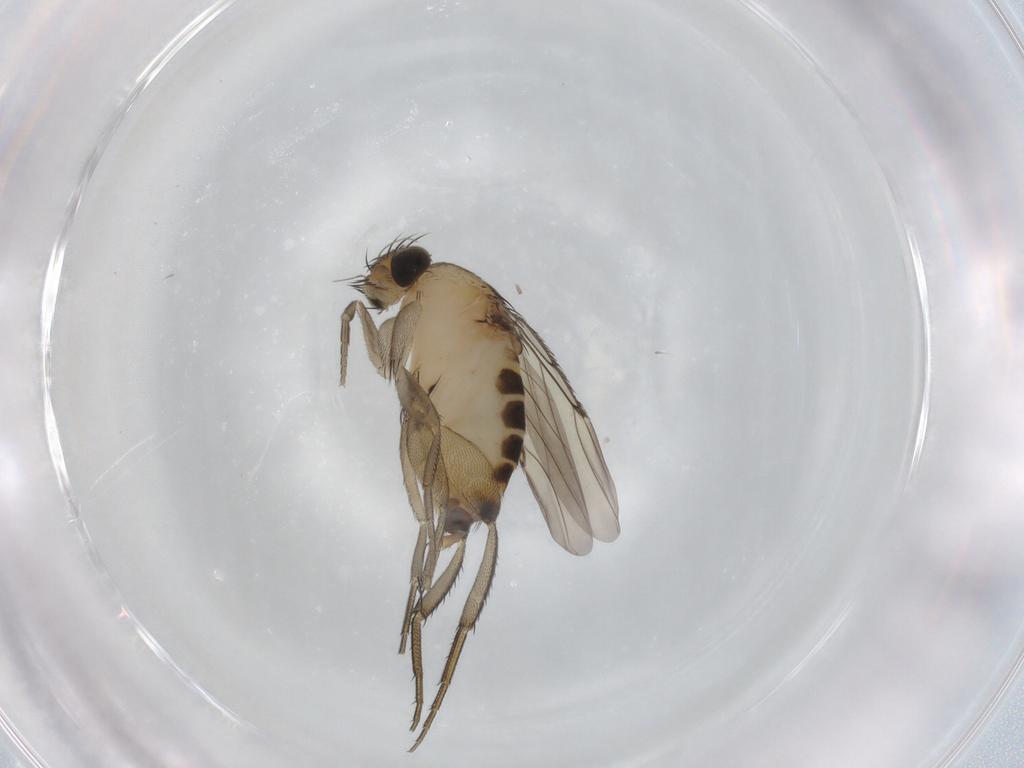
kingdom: Animalia
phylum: Arthropoda
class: Insecta
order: Diptera
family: Phoridae
